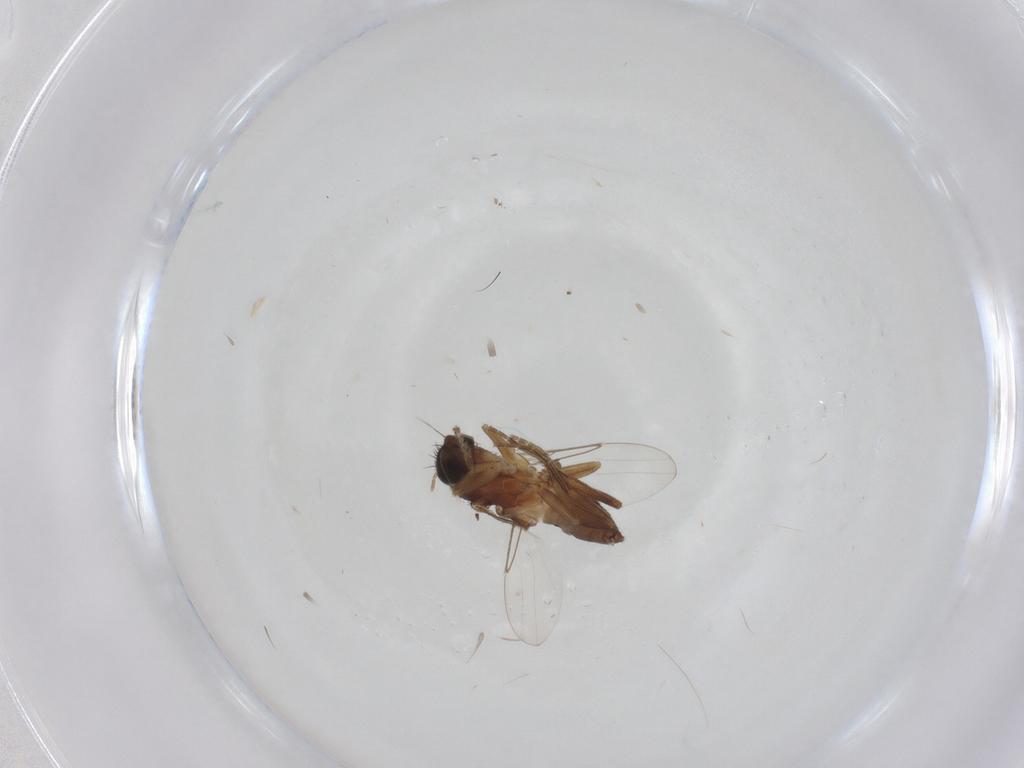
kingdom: Animalia
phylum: Arthropoda
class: Insecta
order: Diptera
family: Phoridae
